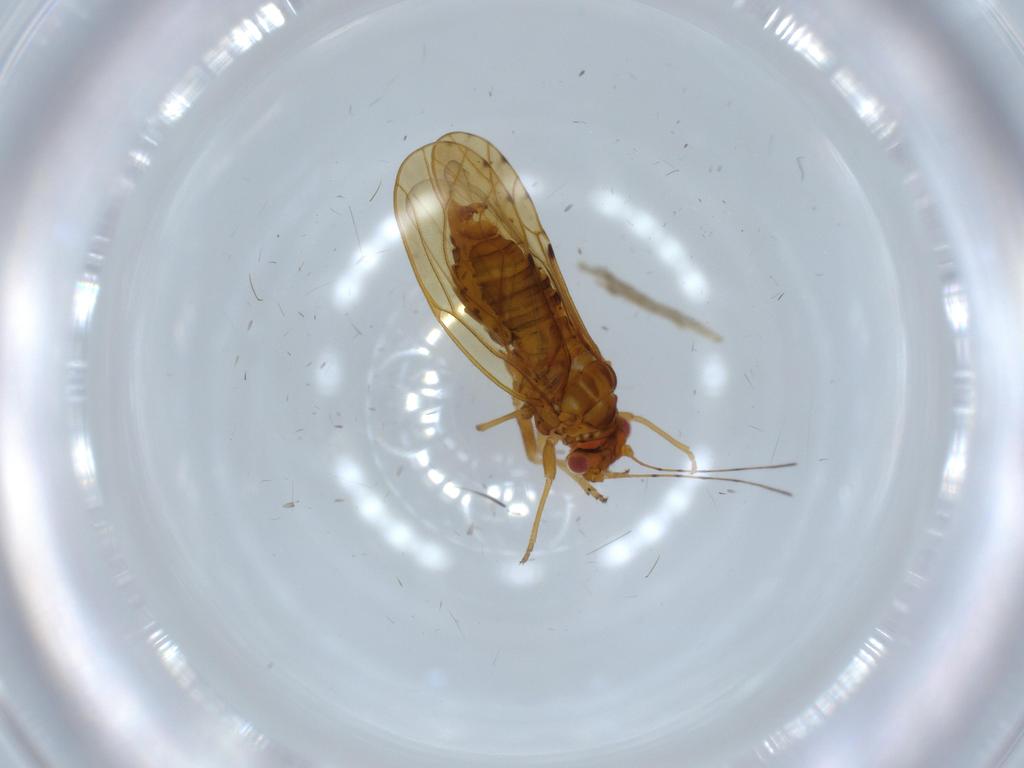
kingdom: Animalia
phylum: Arthropoda
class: Insecta
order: Hemiptera
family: Psylloidea_incertae_sedis
